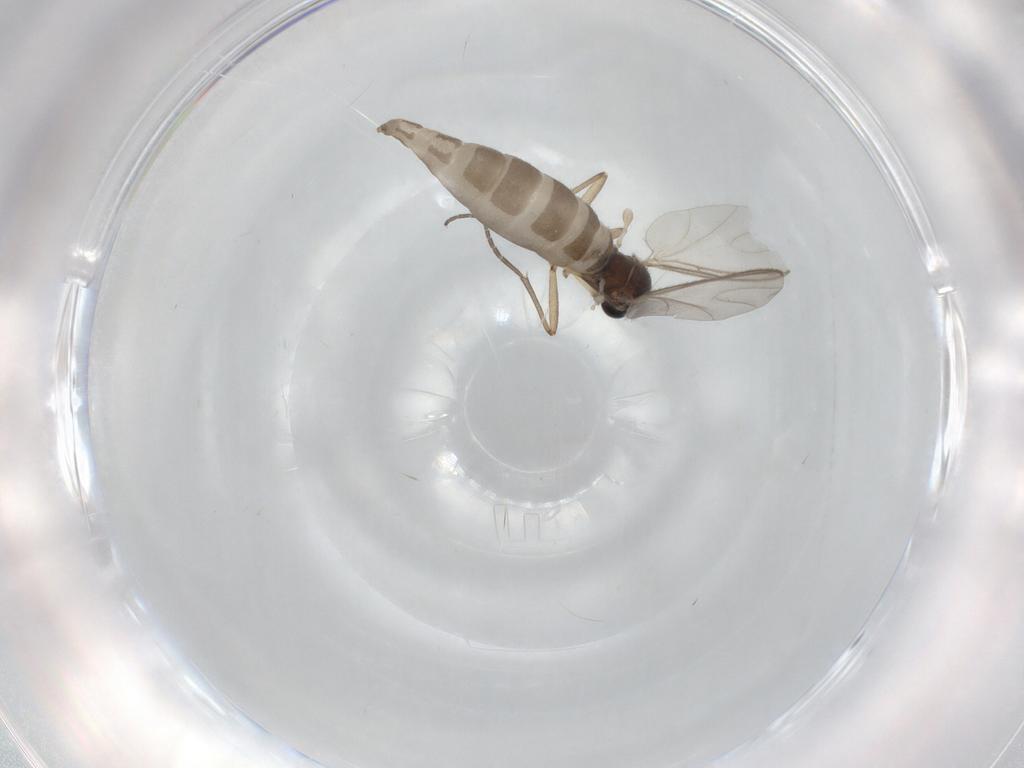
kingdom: Animalia
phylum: Arthropoda
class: Insecta
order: Diptera
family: Sciaridae
